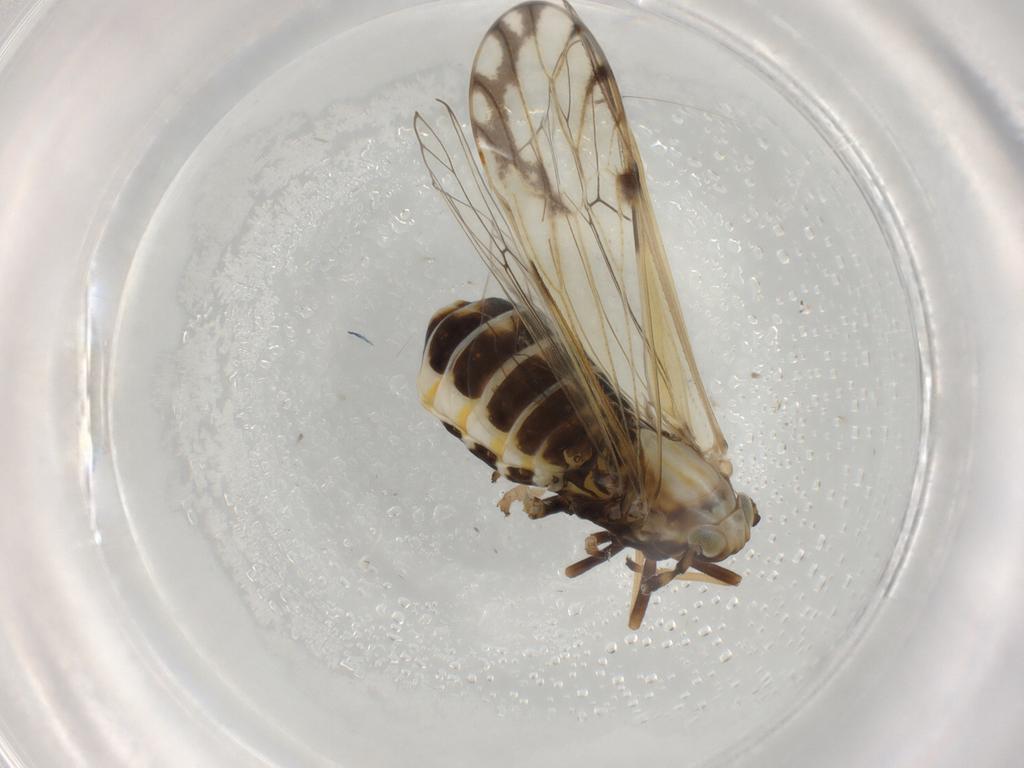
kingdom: Animalia
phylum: Arthropoda
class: Insecta
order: Hemiptera
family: Delphacidae
